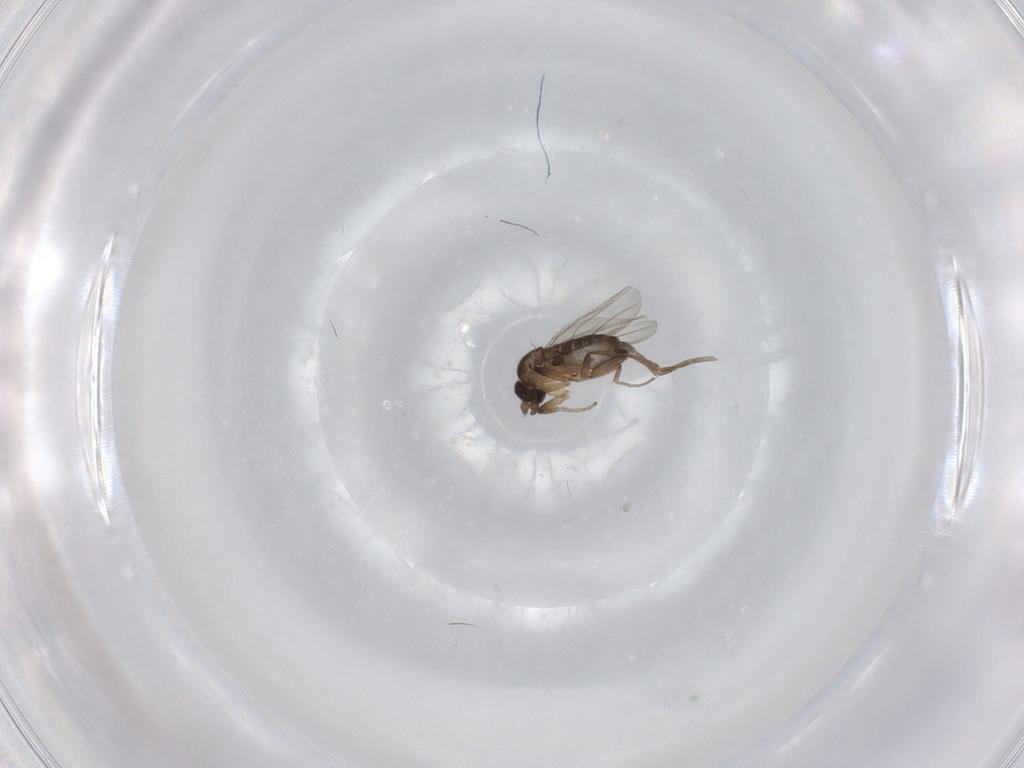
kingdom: Animalia
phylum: Arthropoda
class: Insecta
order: Diptera
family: Phoridae
